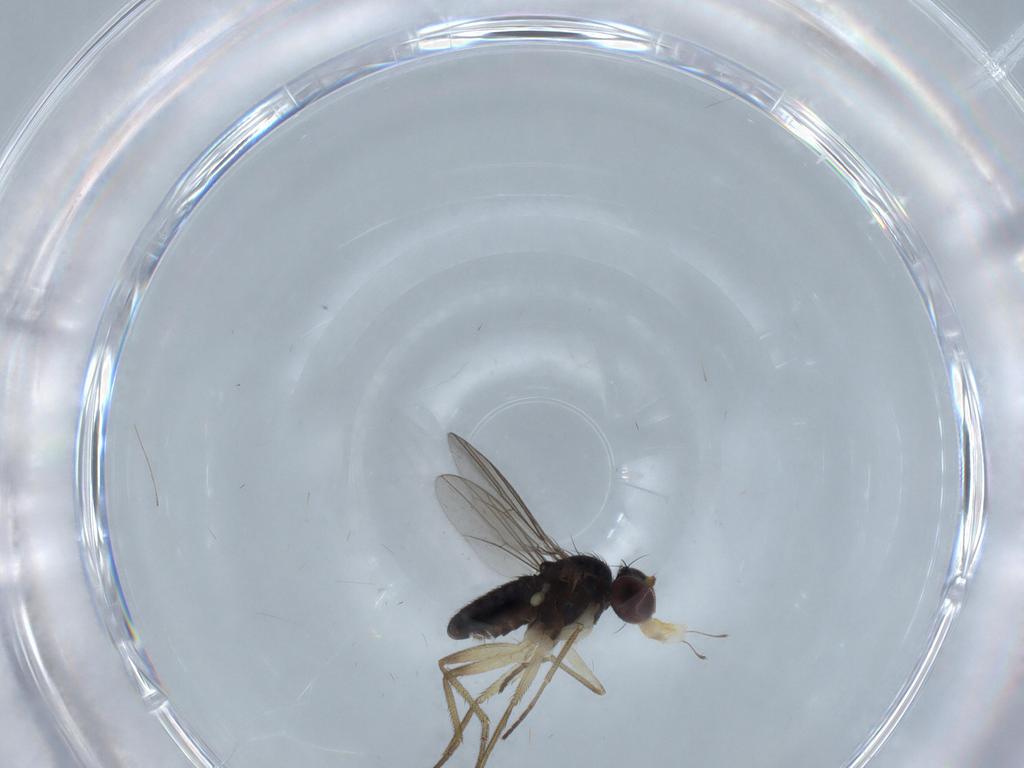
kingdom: Animalia
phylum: Arthropoda
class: Insecta
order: Diptera
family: Dolichopodidae
